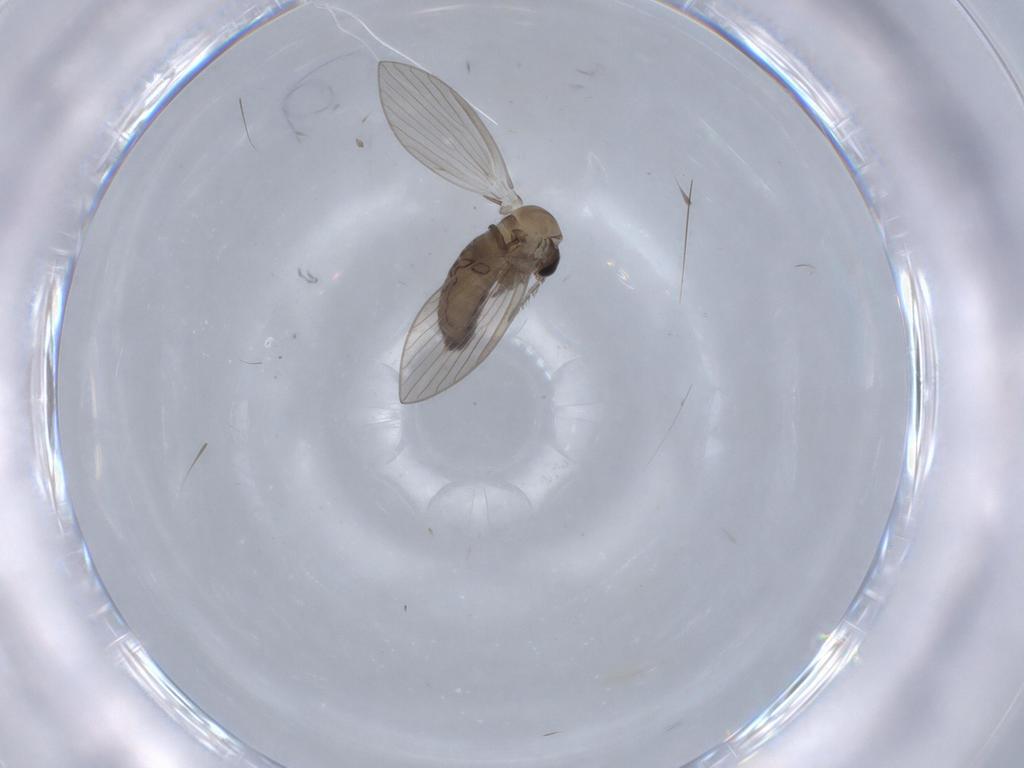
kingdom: Animalia
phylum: Arthropoda
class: Insecta
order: Diptera
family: Psychodidae
